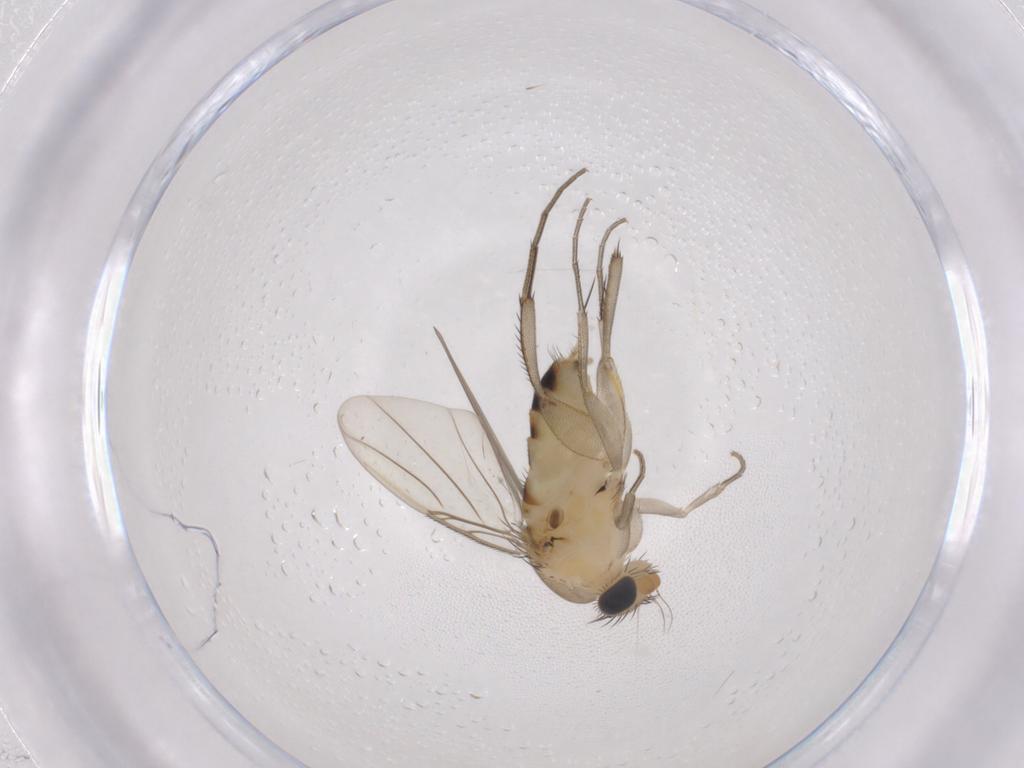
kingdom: Animalia
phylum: Arthropoda
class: Insecta
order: Diptera
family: Phoridae
